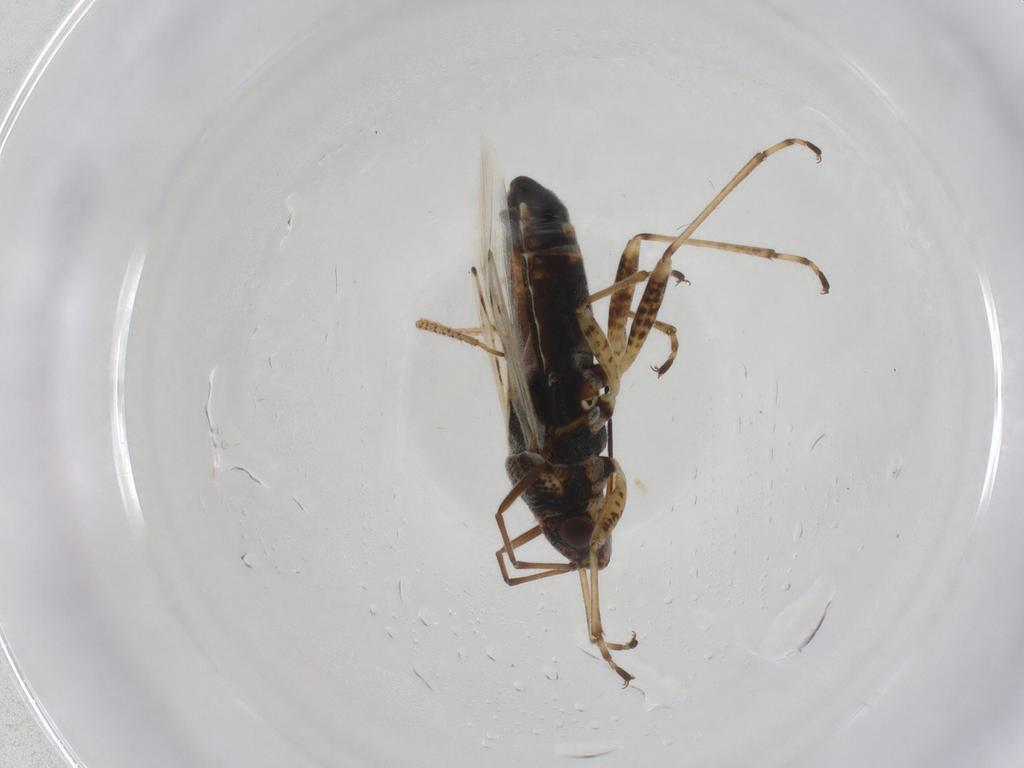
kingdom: Animalia
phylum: Arthropoda
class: Insecta
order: Hemiptera
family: Lygaeidae
